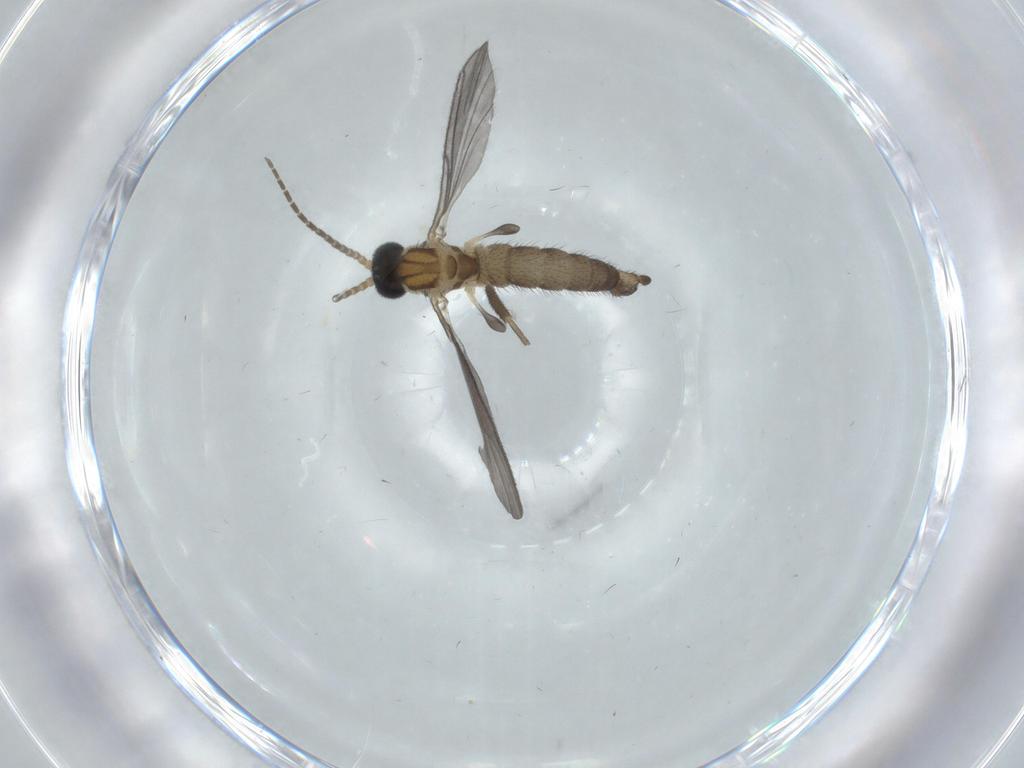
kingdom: Animalia
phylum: Arthropoda
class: Insecta
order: Diptera
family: Sciaridae
